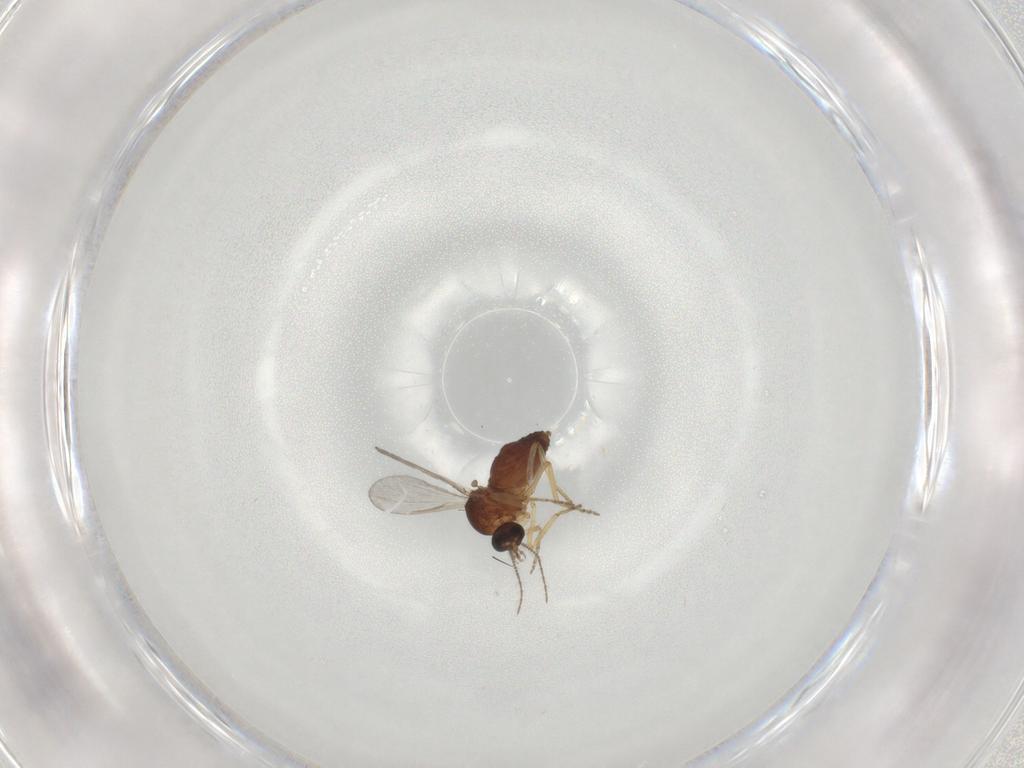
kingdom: Animalia
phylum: Arthropoda
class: Insecta
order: Diptera
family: Ceratopogonidae
